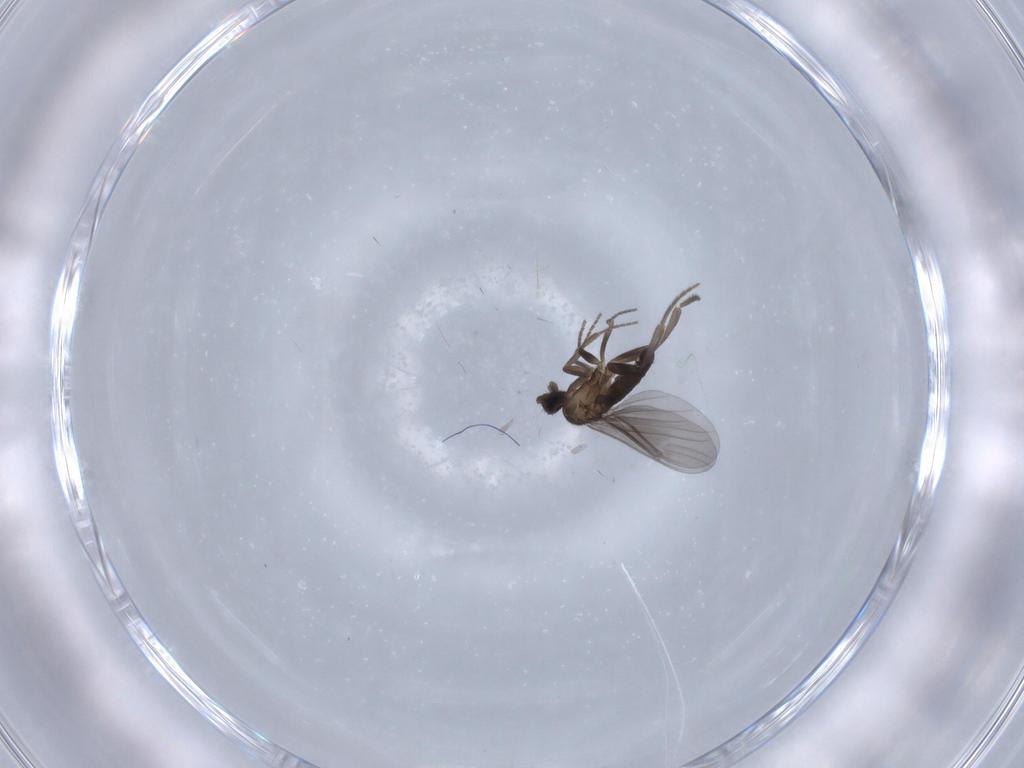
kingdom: Animalia
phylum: Arthropoda
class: Insecta
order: Diptera
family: Phoridae
